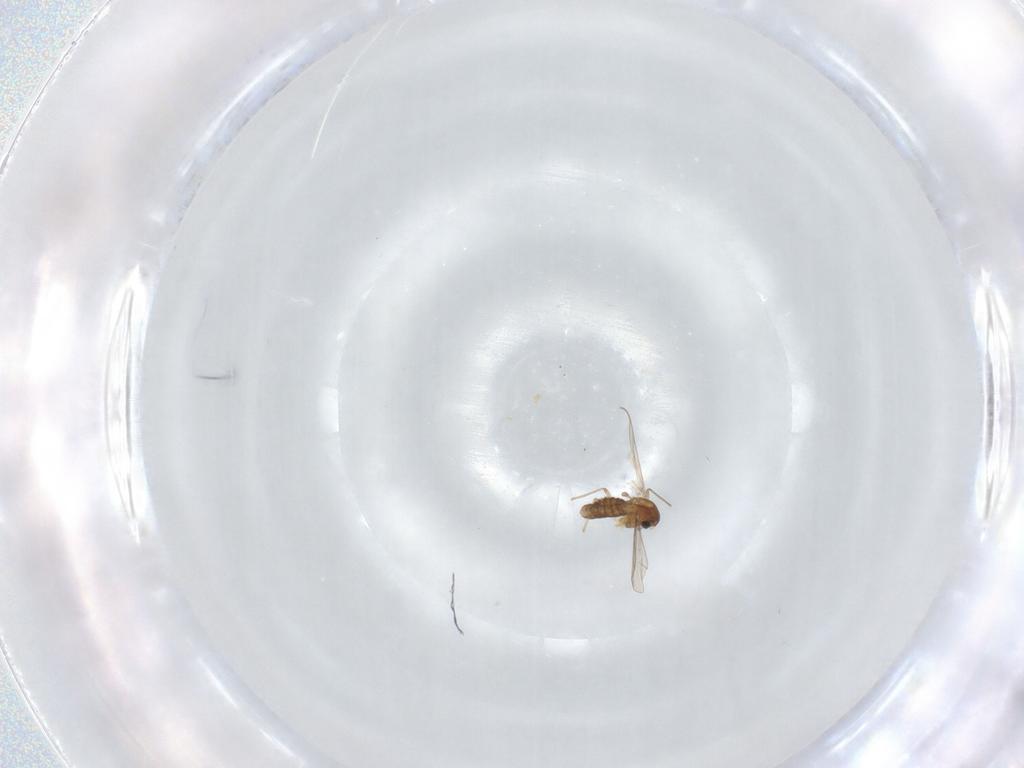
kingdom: Animalia
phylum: Arthropoda
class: Insecta
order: Diptera
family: Chironomidae
